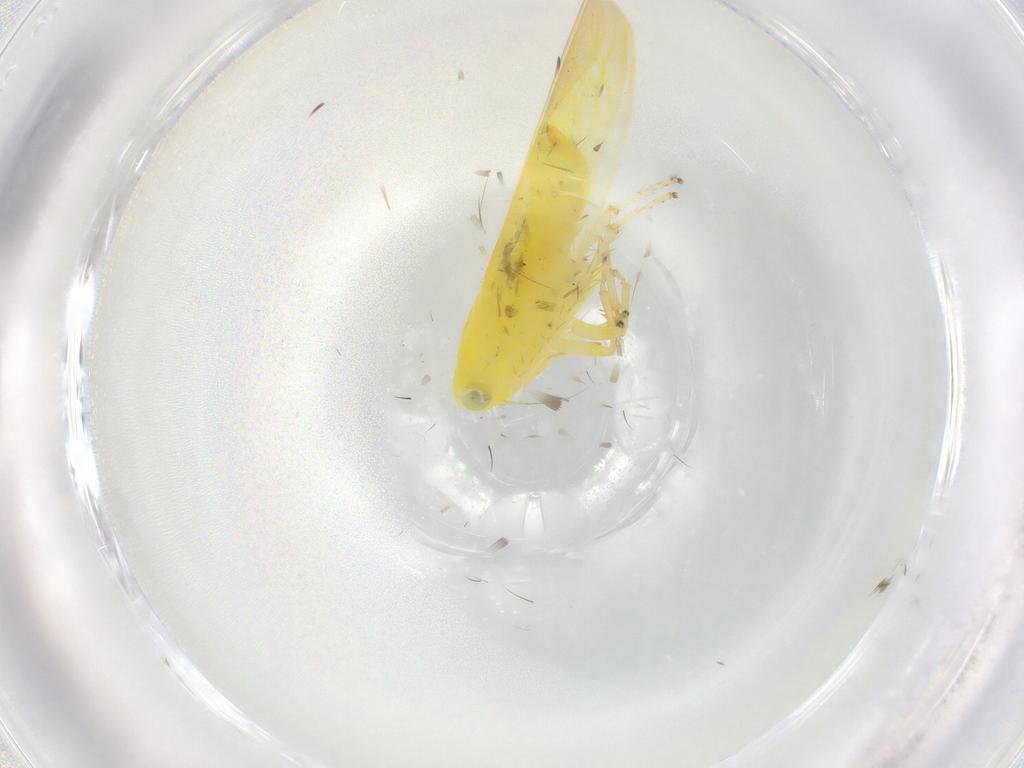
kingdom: Animalia
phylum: Arthropoda
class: Insecta
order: Hemiptera
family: Cicadellidae
